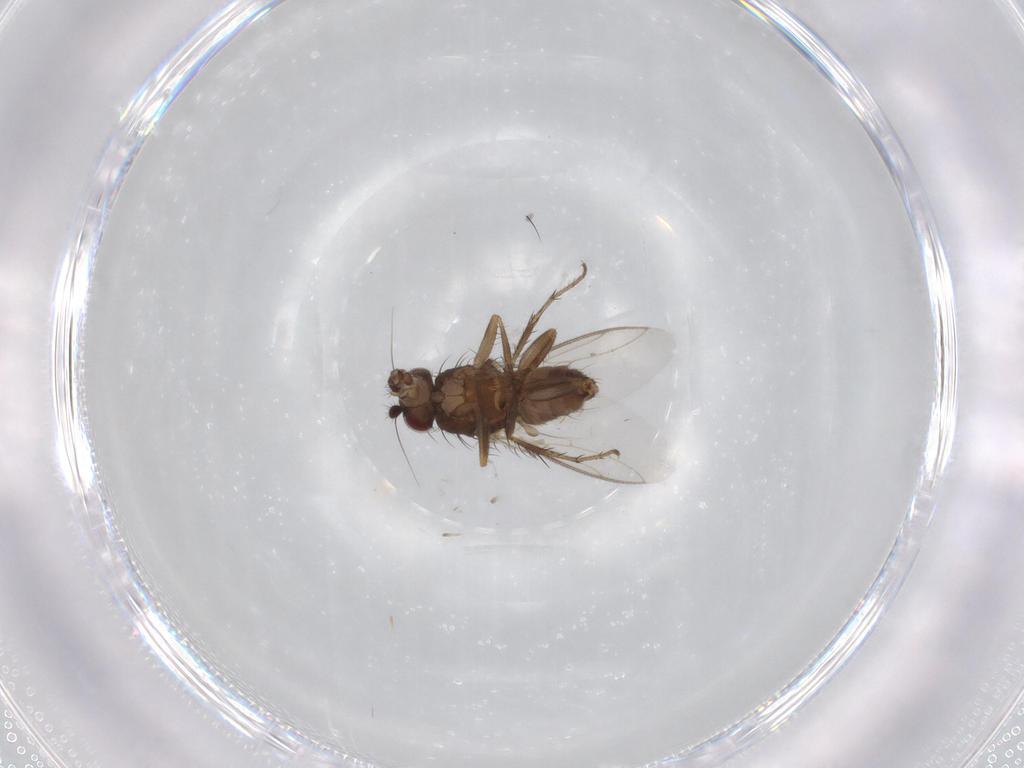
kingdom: Animalia
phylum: Arthropoda
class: Insecta
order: Diptera
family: Sphaeroceridae
